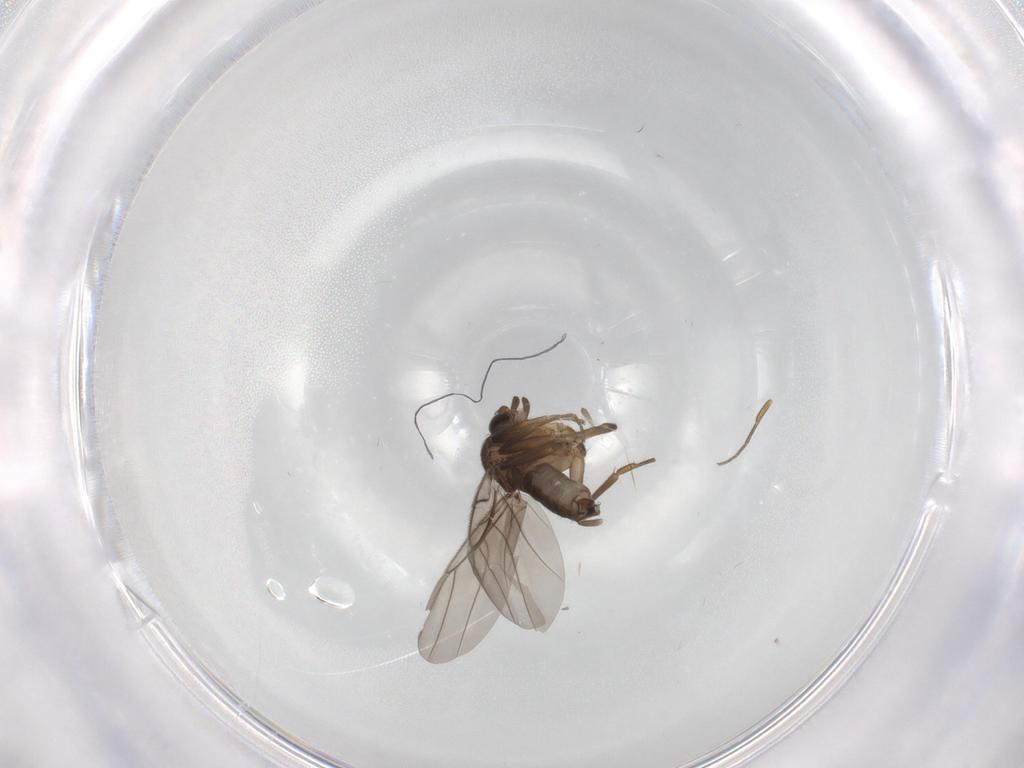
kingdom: Animalia
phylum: Arthropoda
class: Insecta
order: Diptera
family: Phoridae
